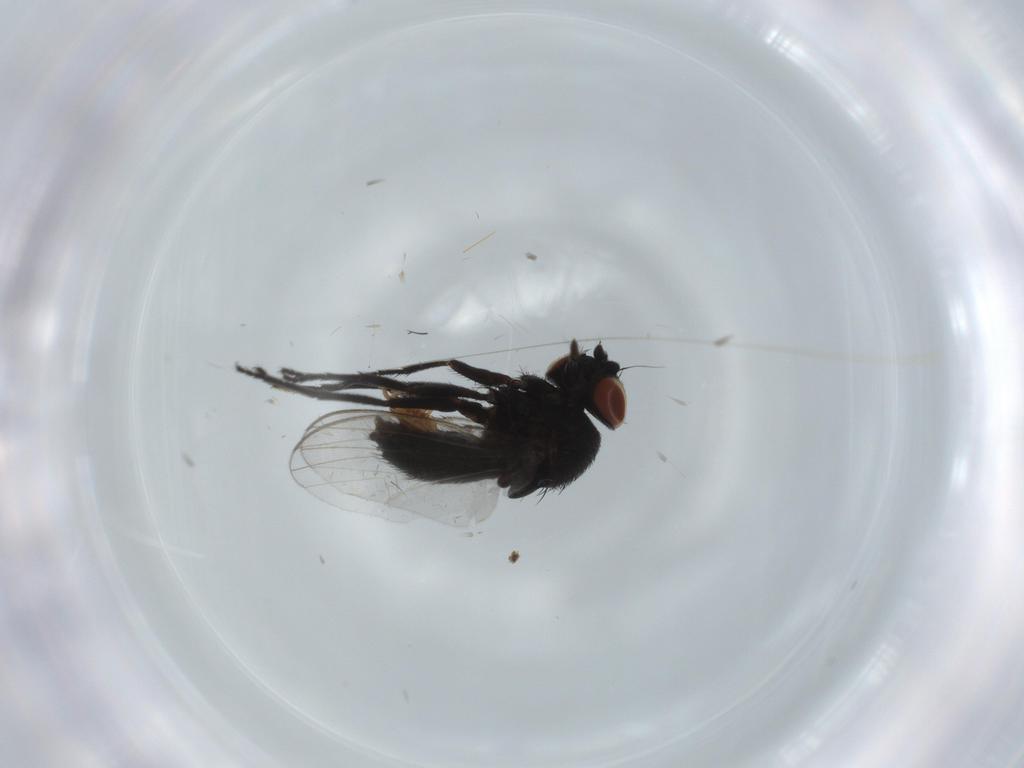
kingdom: Animalia
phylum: Arthropoda
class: Insecta
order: Diptera
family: Milichiidae
